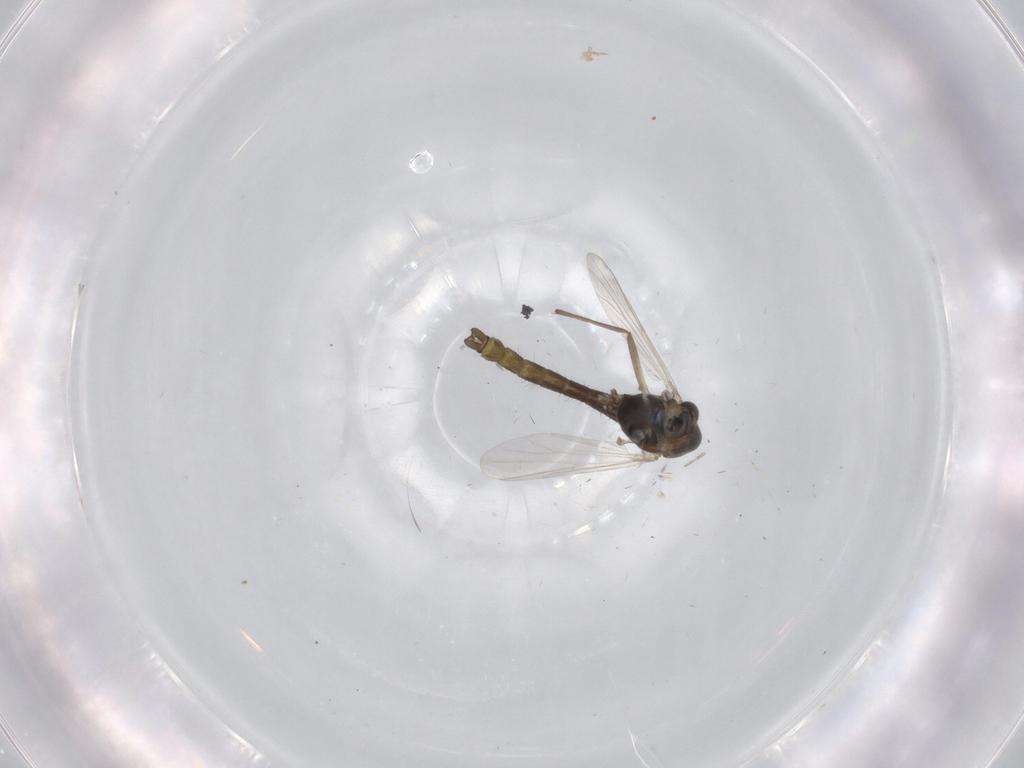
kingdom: Animalia
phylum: Arthropoda
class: Insecta
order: Diptera
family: Chironomidae
